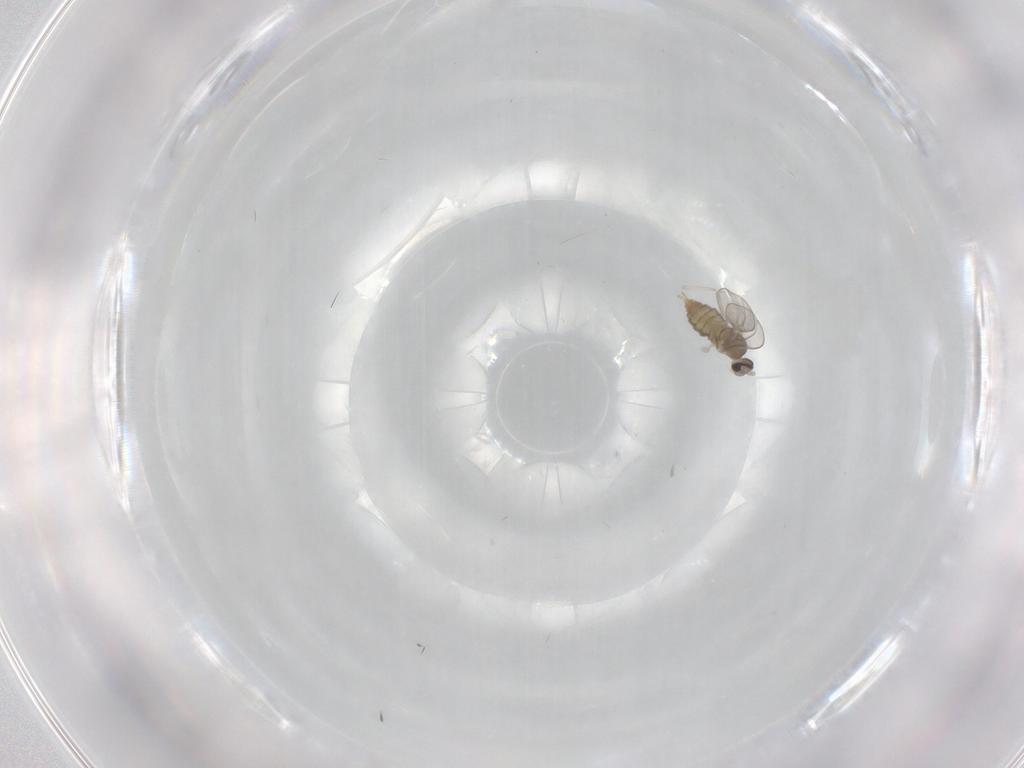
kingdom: Animalia
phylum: Arthropoda
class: Insecta
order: Diptera
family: Cecidomyiidae
